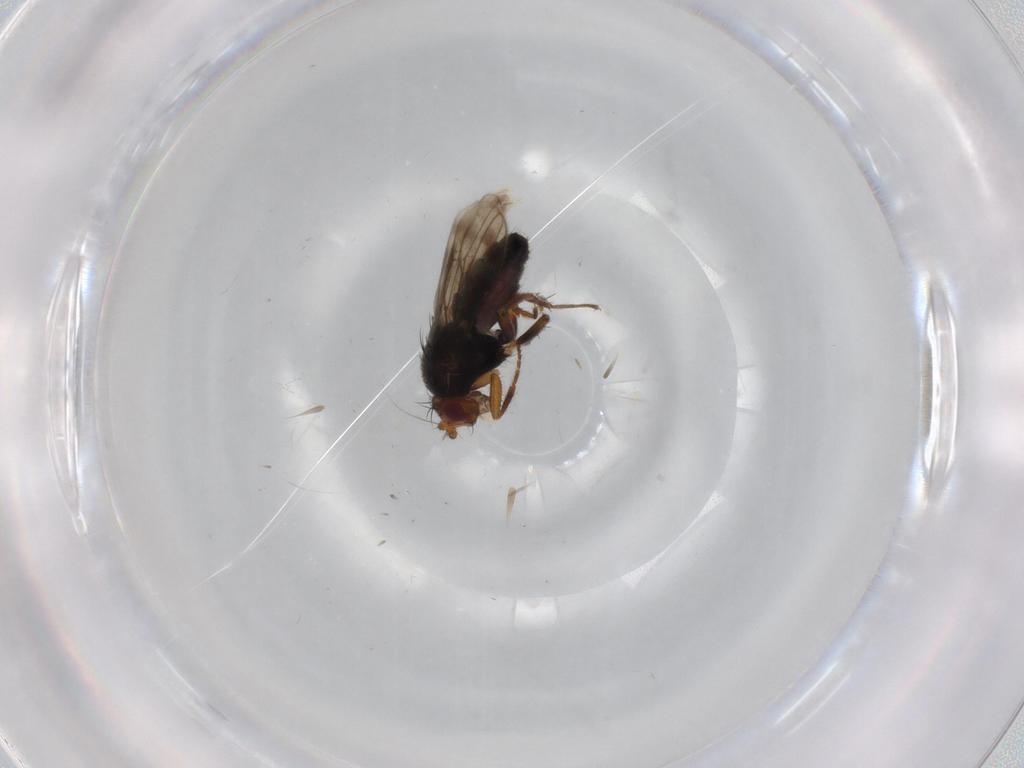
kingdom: Animalia
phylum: Arthropoda
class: Insecta
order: Diptera
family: Sphaeroceridae
